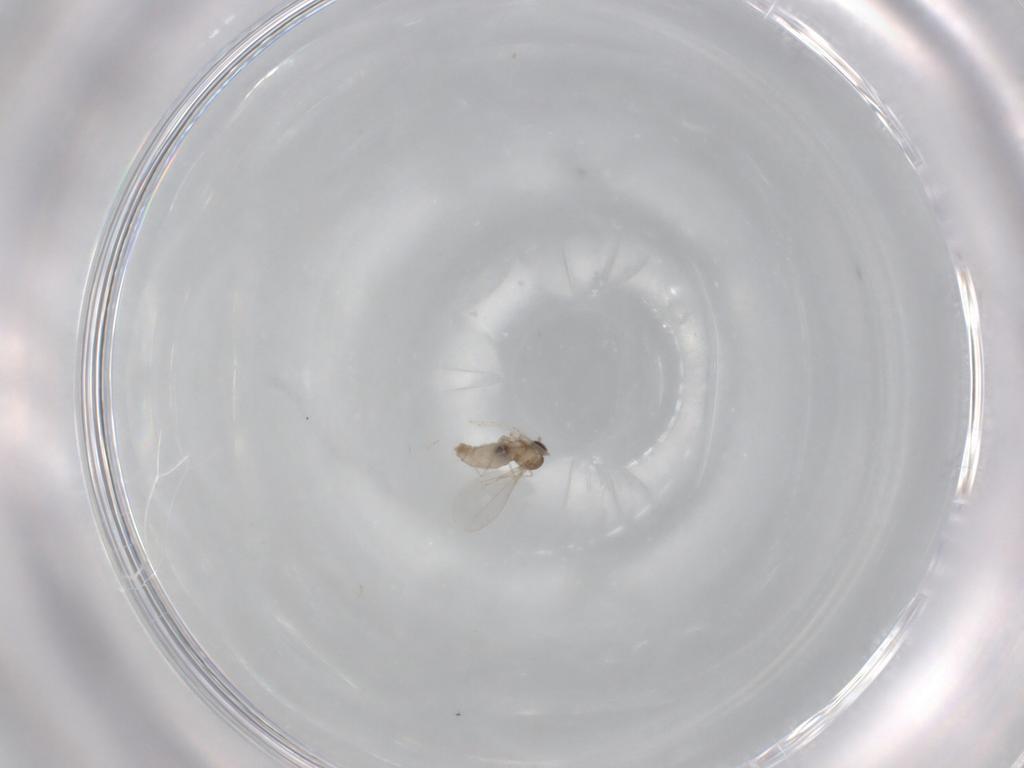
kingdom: Animalia
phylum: Arthropoda
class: Insecta
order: Diptera
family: Cecidomyiidae
